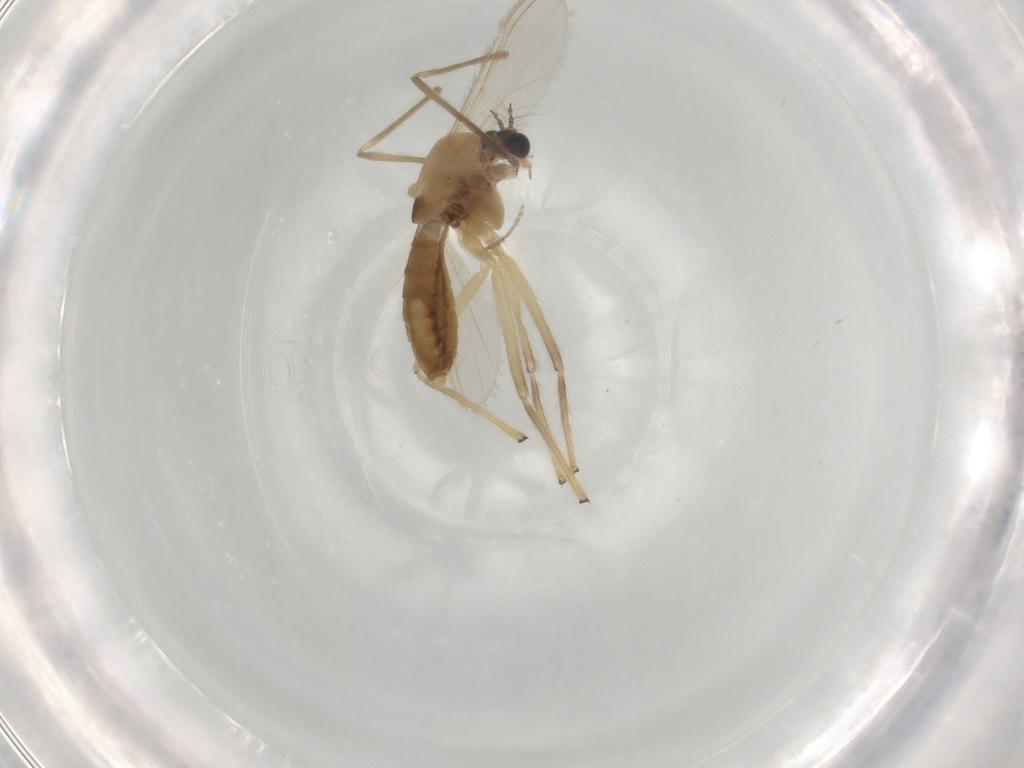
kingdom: Animalia
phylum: Arthropoda
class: Insecta
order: Diptera
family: Chironomidae
